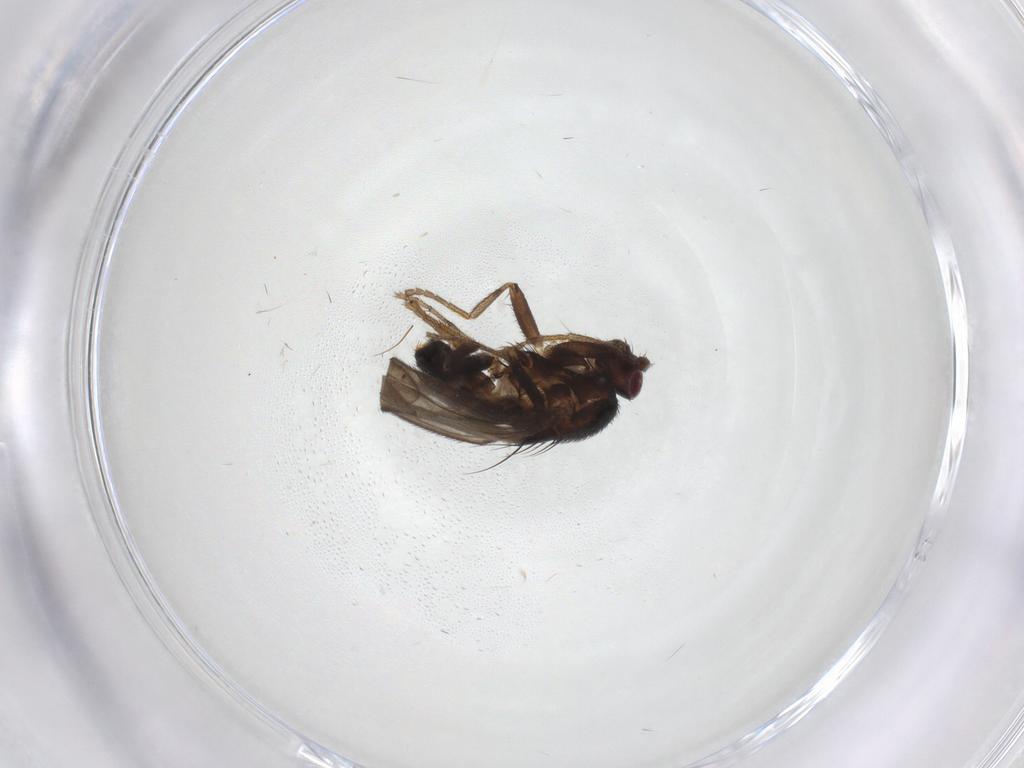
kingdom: Animalia
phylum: Arthropoda
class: Insecta
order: Diptera
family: Sphaeroceridae
